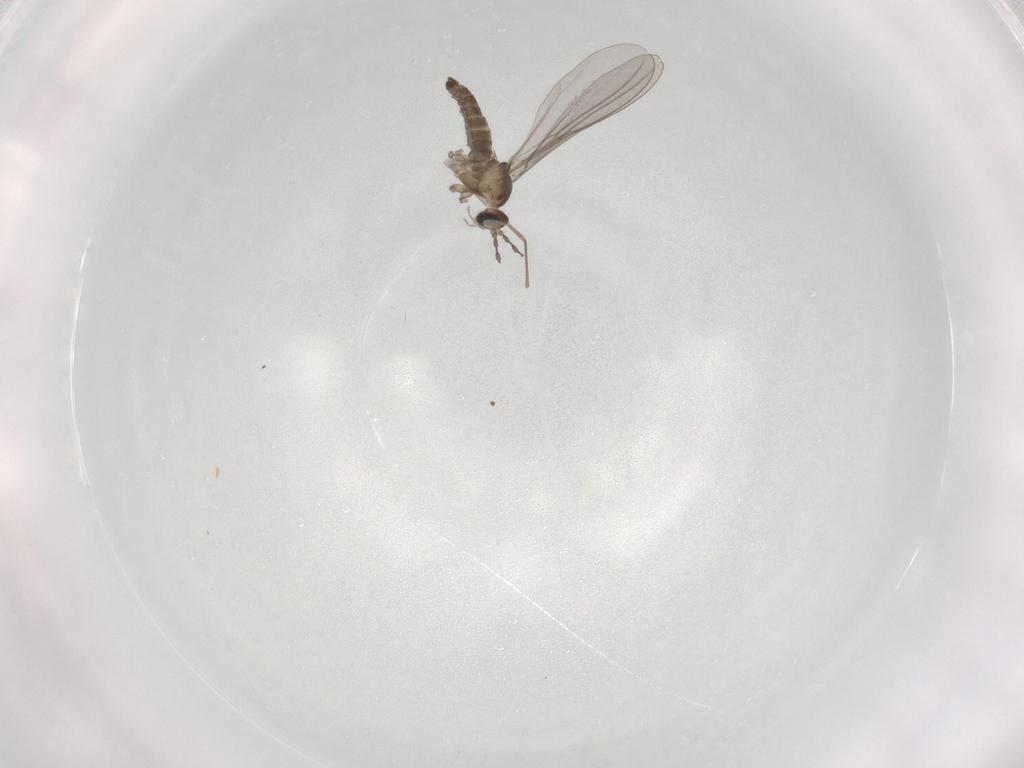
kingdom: Animalia
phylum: Arthropoda
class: Insecta
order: Diptera
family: Cecidomyiidae
